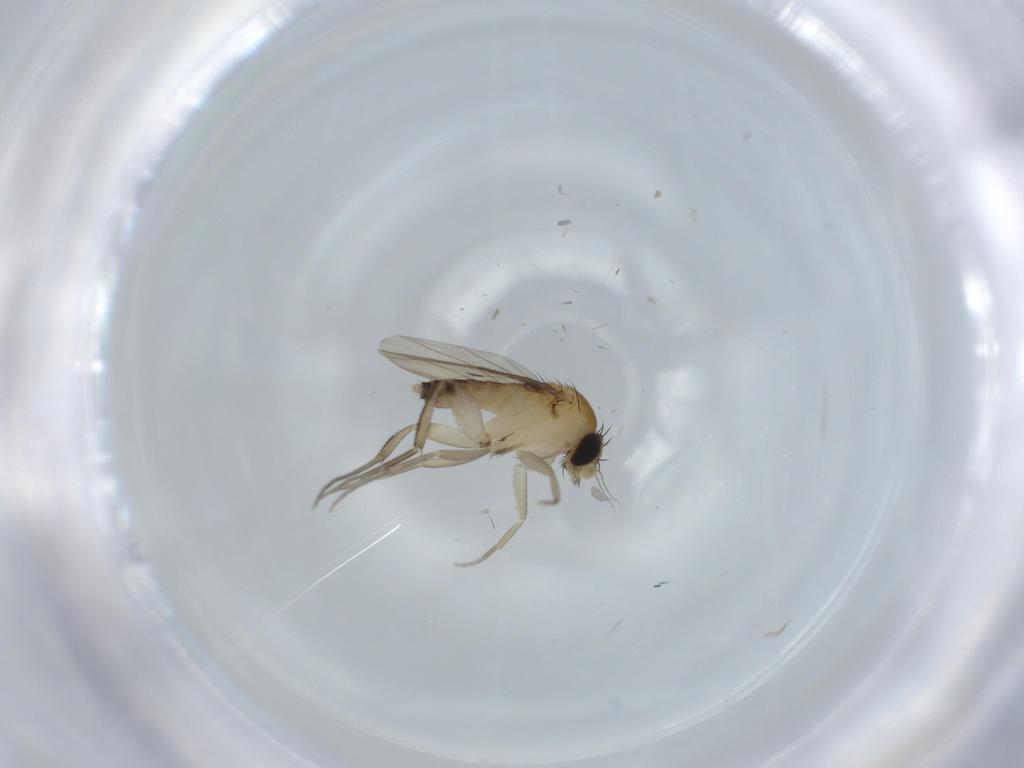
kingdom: Animalia
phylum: Arthropoda
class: Insecta
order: Diptera
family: Phoridae
